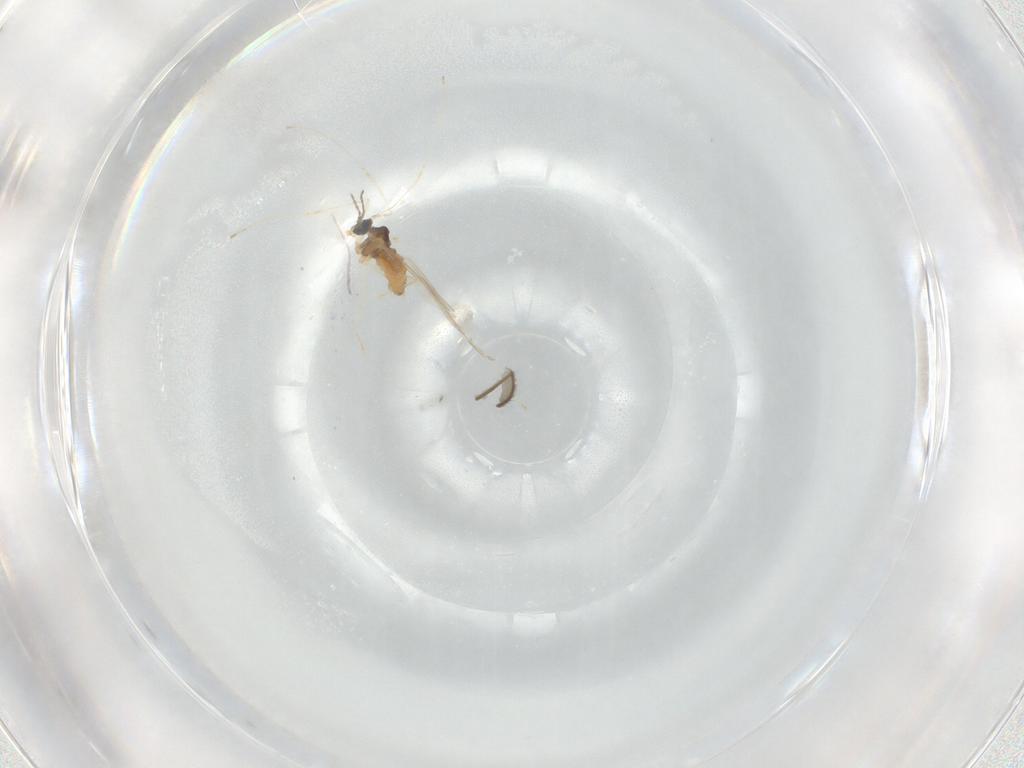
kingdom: Animalia
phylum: Arthropoda
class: Insecta
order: Diptera
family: Cecidomyiidae
